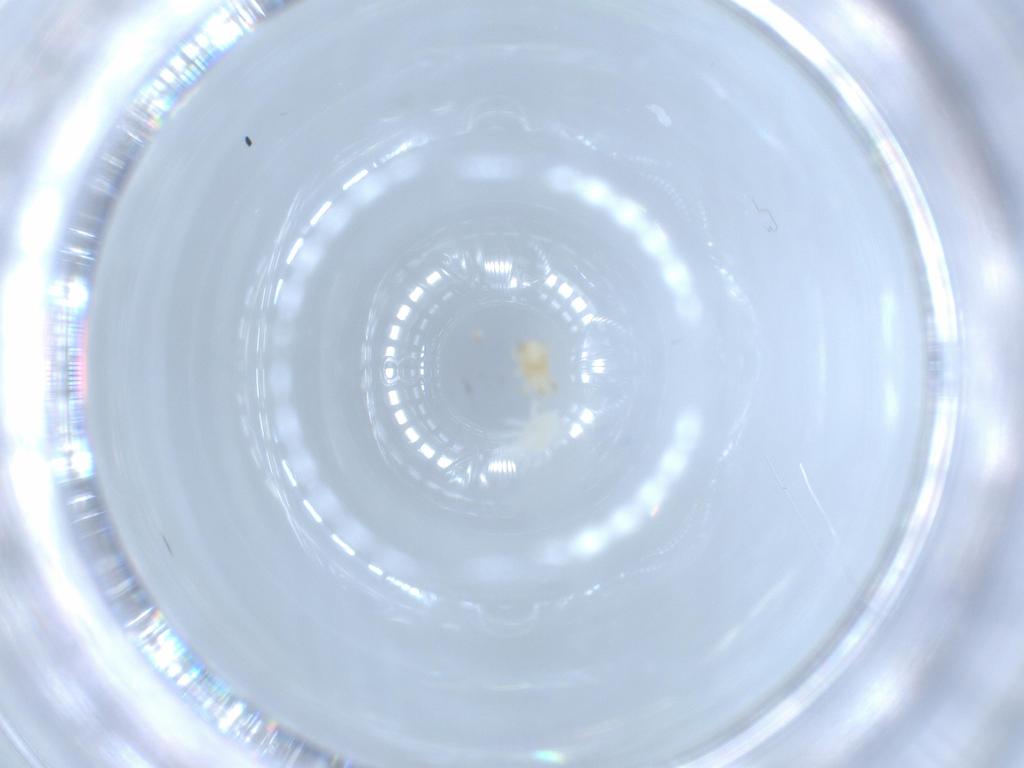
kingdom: Animalia
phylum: Arthropoda
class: Arachnida
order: Mesostigmata
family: Phytoseiidae
